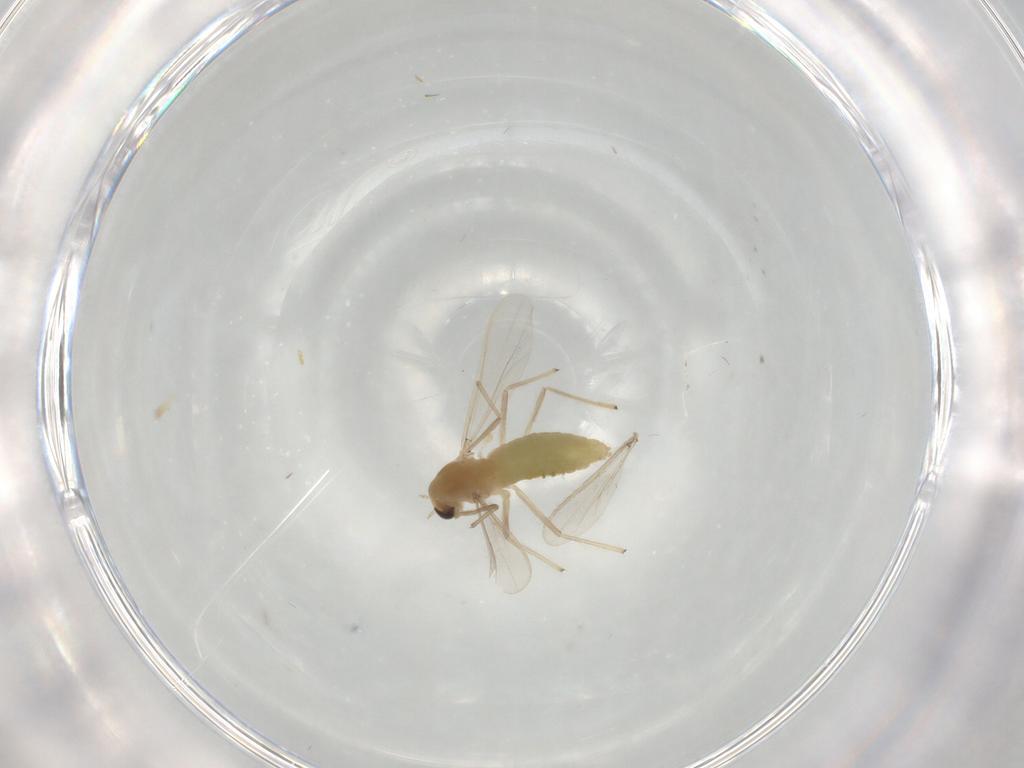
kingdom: Animalia
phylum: Arthropoda
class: Insecta
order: Diptera
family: Chironomidae
